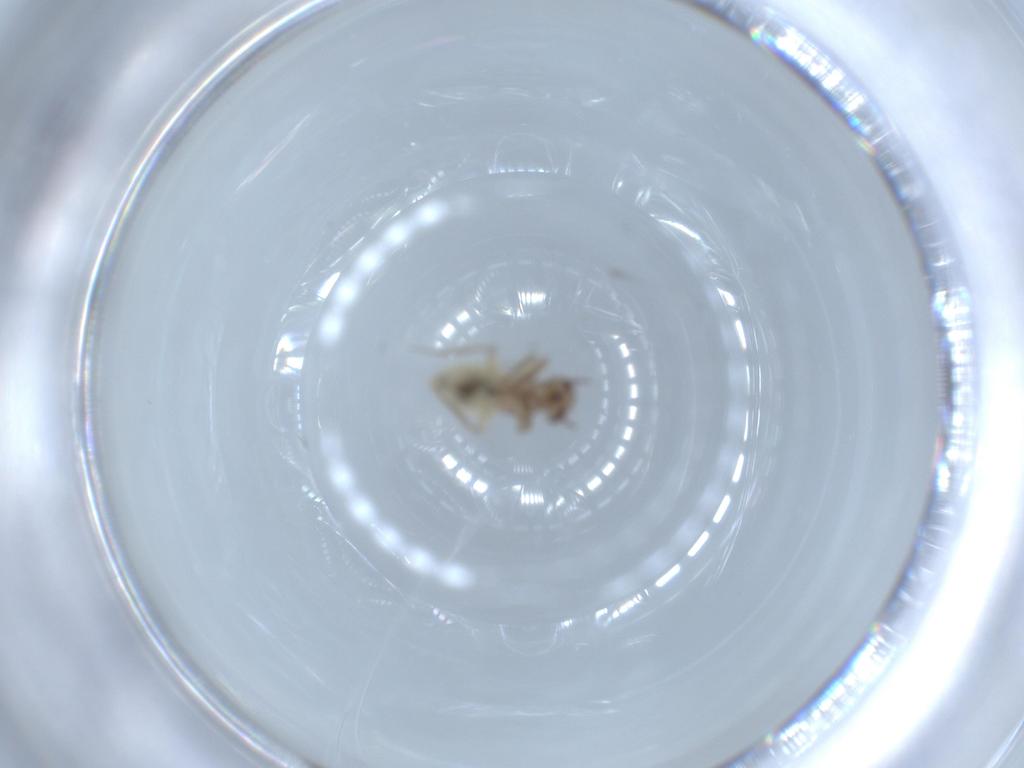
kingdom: Animalia
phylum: Arthropoda
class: Insecta
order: Psocodea
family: Lepidopsocidae
